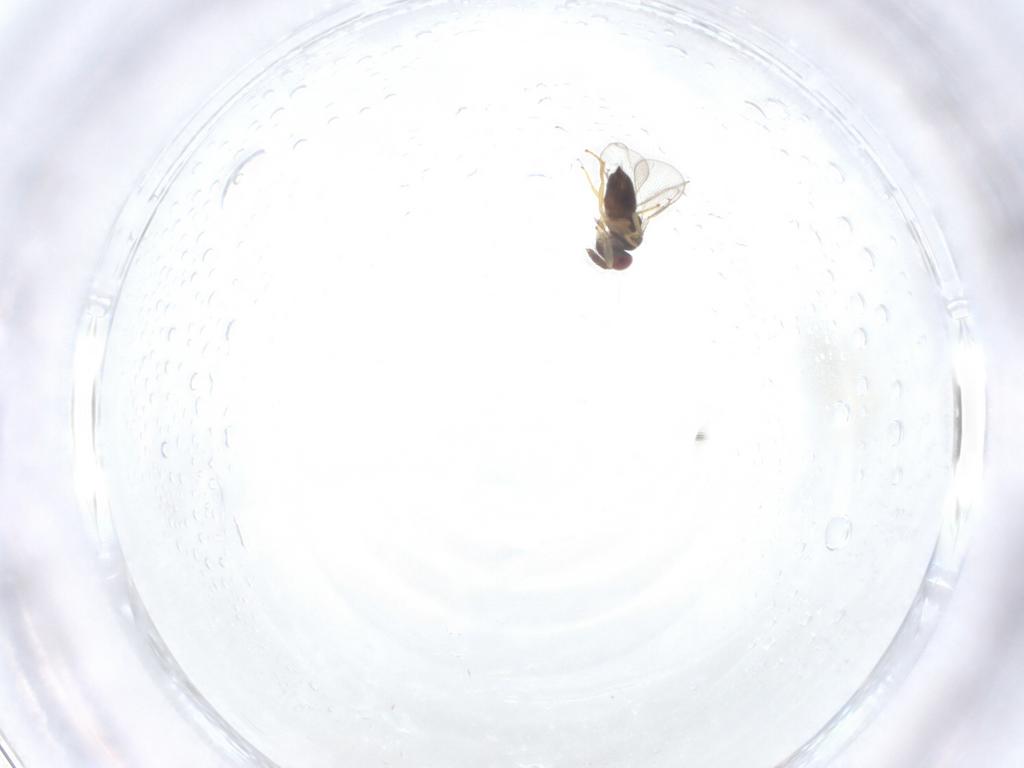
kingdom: Animalia
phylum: Arthropoda
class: Insecta
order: Hymenoptera
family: Eulophidae
